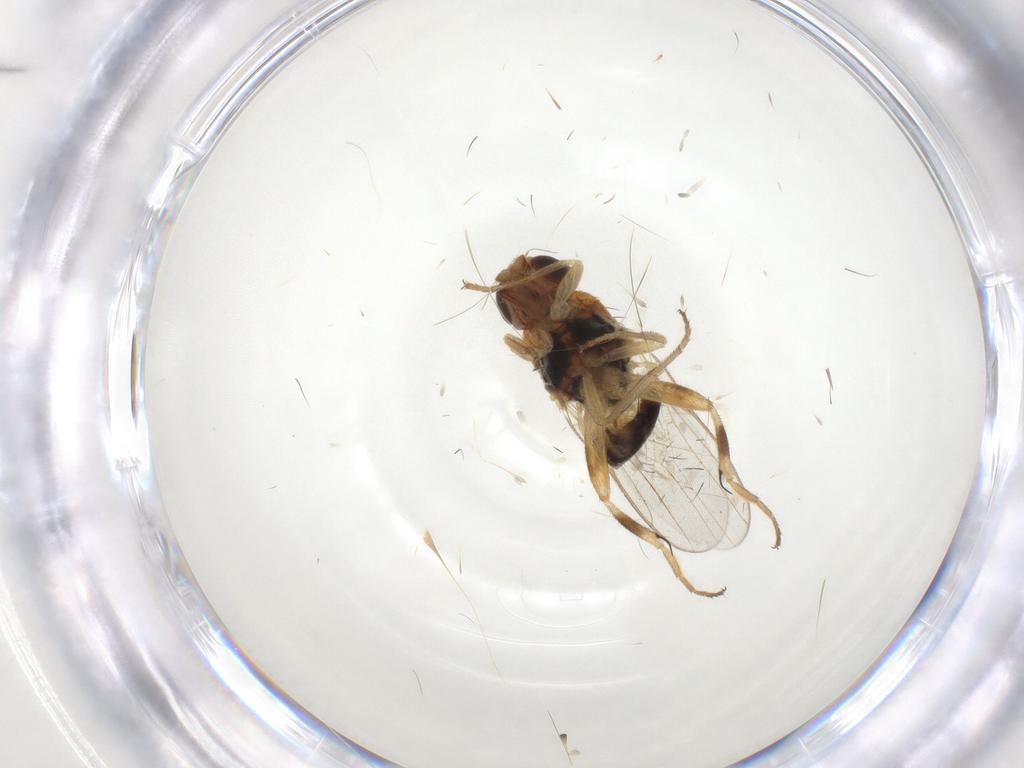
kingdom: Animalia
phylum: Arthropoda
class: Insecta
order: Diptera
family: Chloropidae
